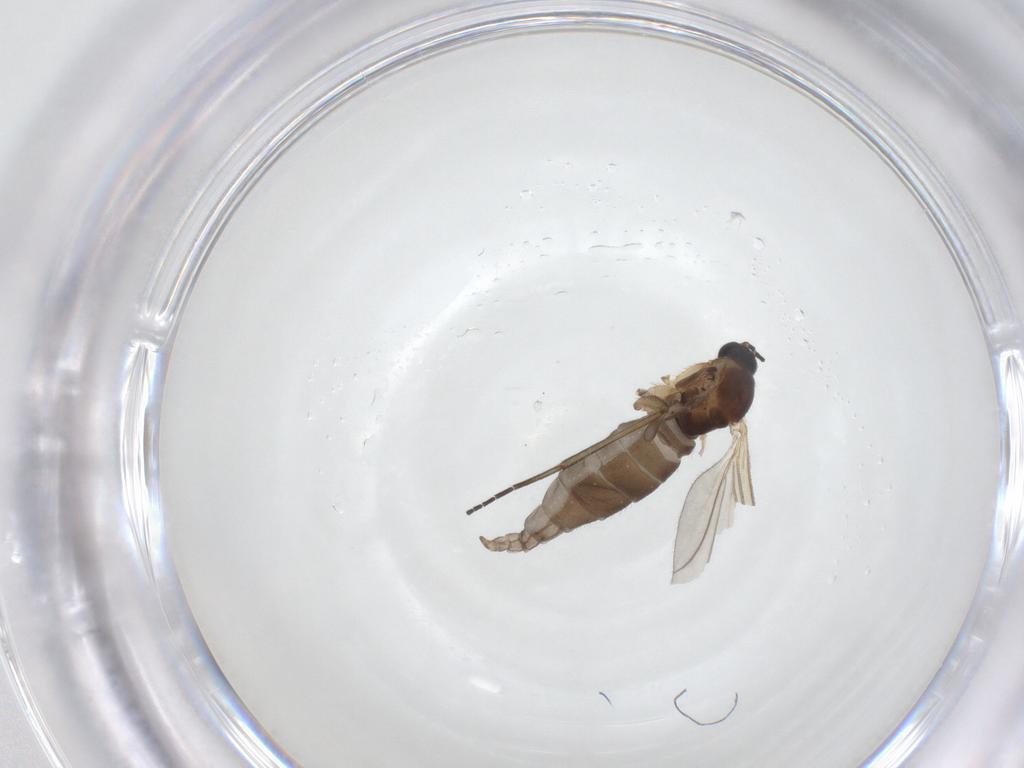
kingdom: Animalia
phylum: Arthropoda
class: Insecta
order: Diptera
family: Sciaridae
